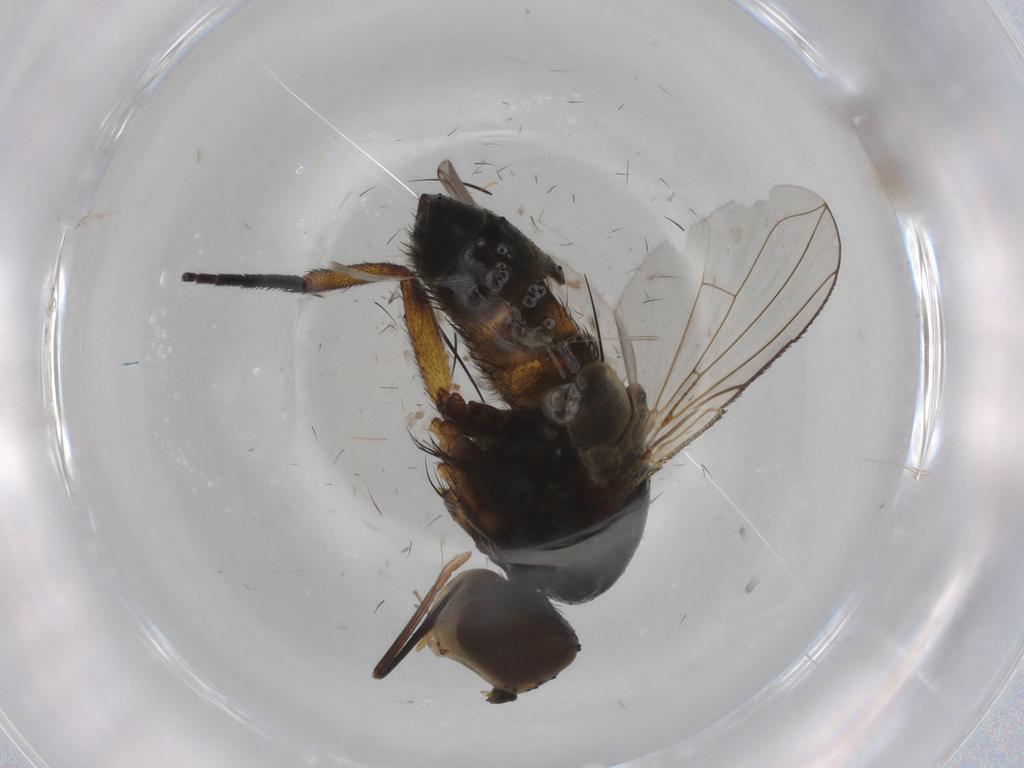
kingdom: Animalia
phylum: Arthropoda
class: Insecta
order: Diptera
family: Tachinidae
